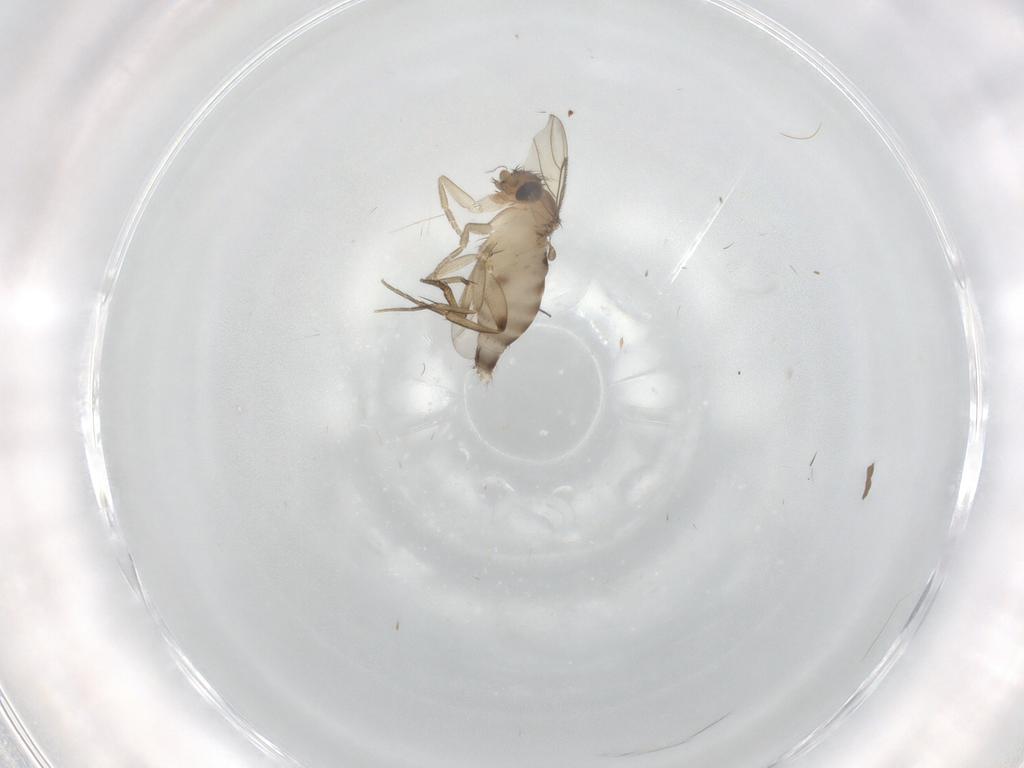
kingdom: Animalia
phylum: Arthropoda
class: Insecta
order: Diptera
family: Phoridae
